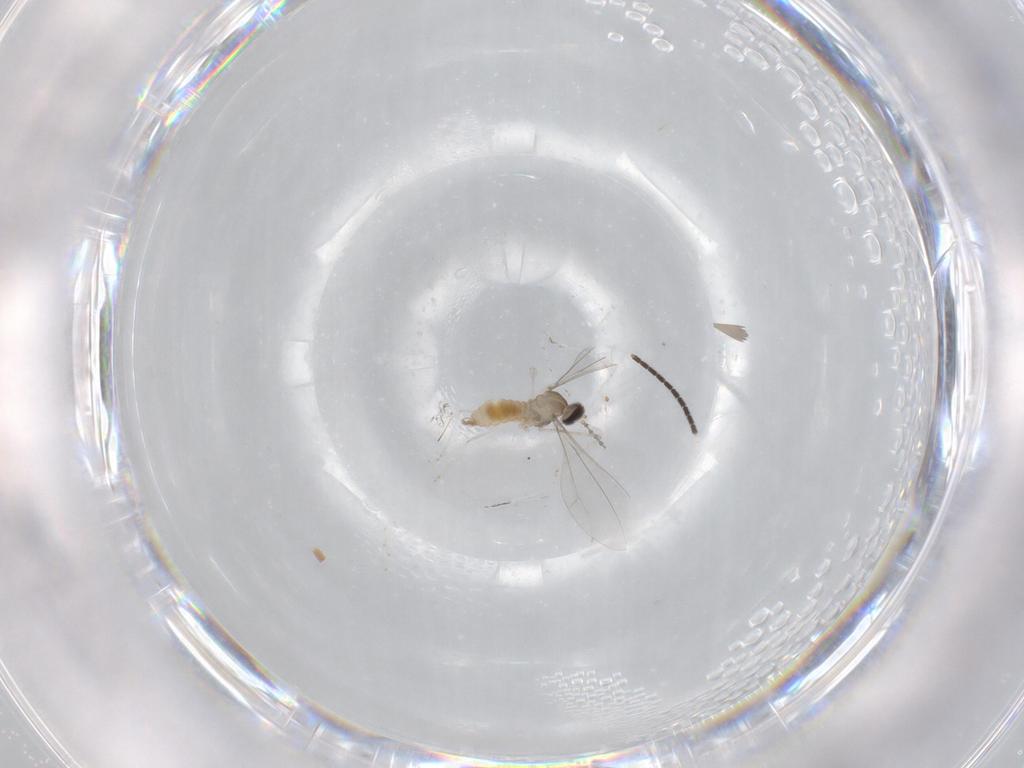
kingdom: Animalia
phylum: Arthropoda
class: Insecta
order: Diptera
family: Cecidomyiidae
